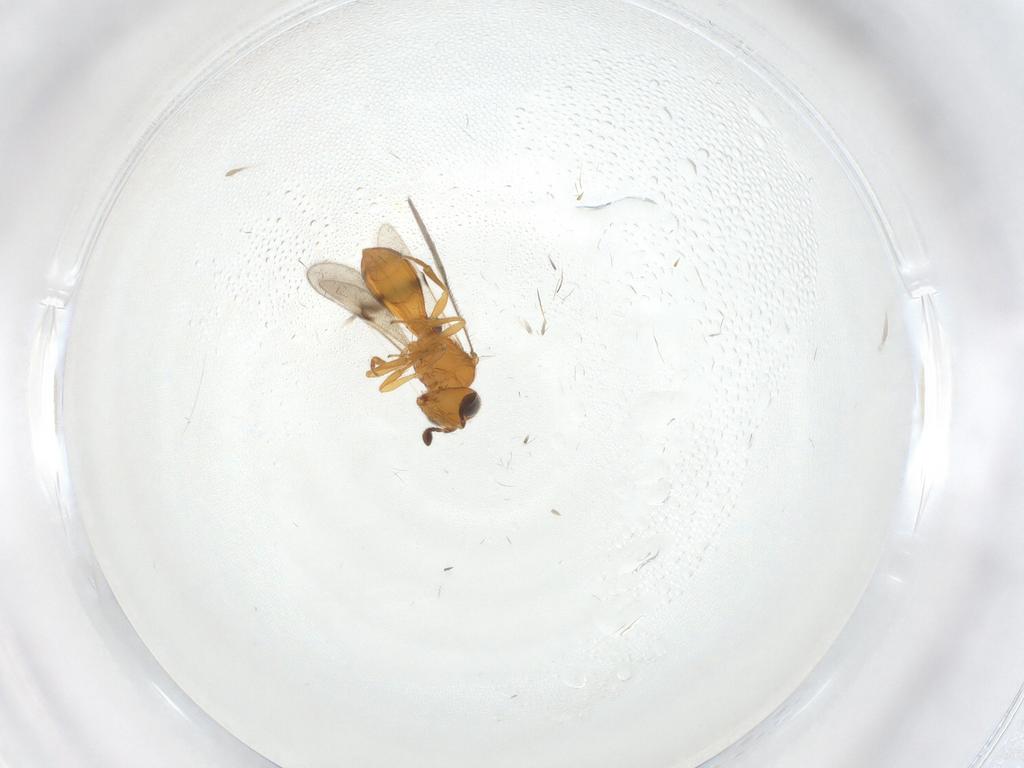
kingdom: Animalia
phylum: Arthropoda
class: Insecta
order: Hymenoptera
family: Scelionidae
